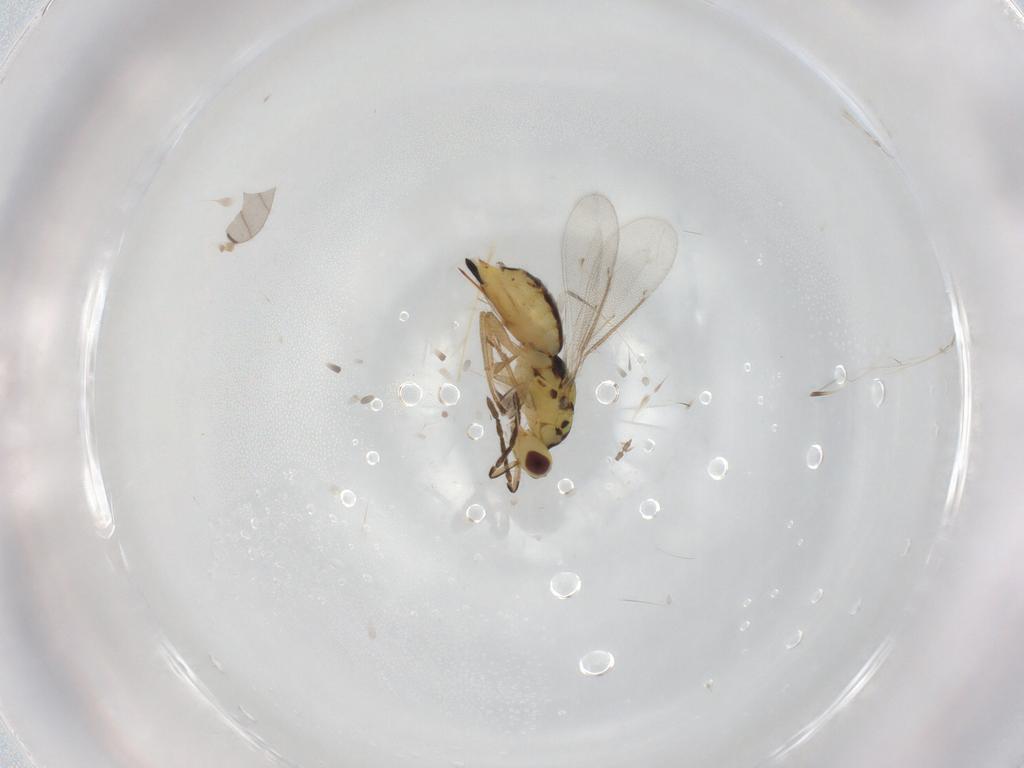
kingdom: Animalia
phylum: Arthropoda
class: Insecta
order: Hymenoptera
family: Eulophidae
